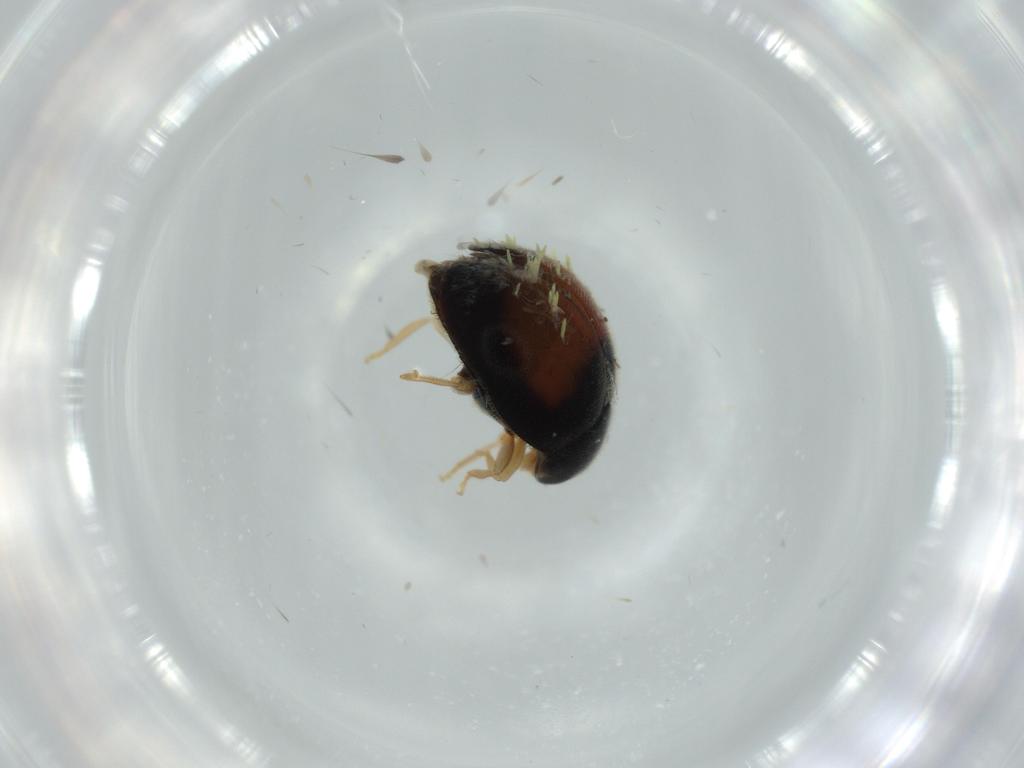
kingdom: Animalia
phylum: Arthropoda
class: Insecta
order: Coleoptera
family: Coccinellidae
